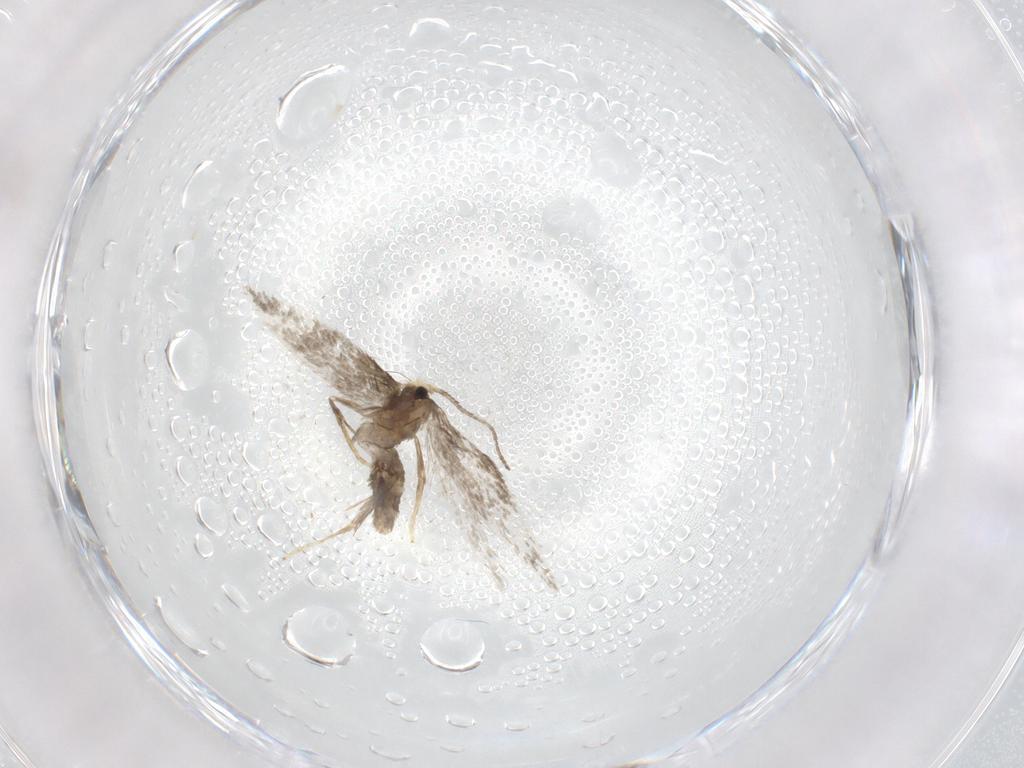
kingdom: Animalia
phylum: Arthropoda
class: Insecta
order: Lepidoptera
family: Nepticulidae
